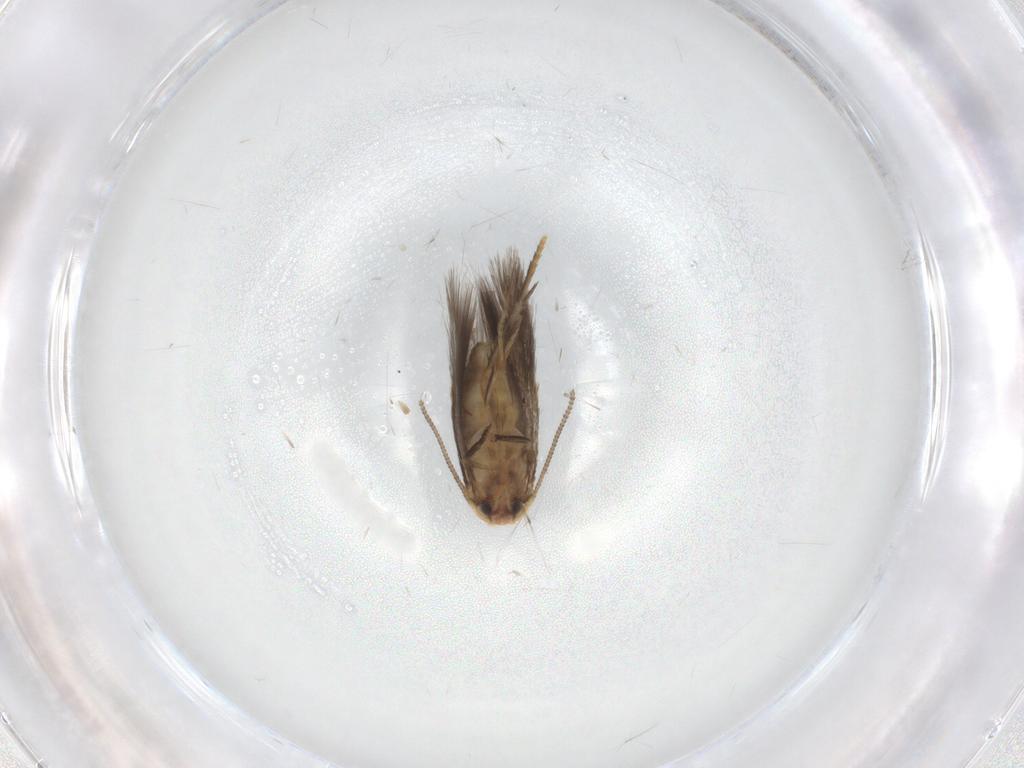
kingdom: Animalia
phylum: Arthropoda
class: Insecta
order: Lepidoptera
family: Nepticulidae
